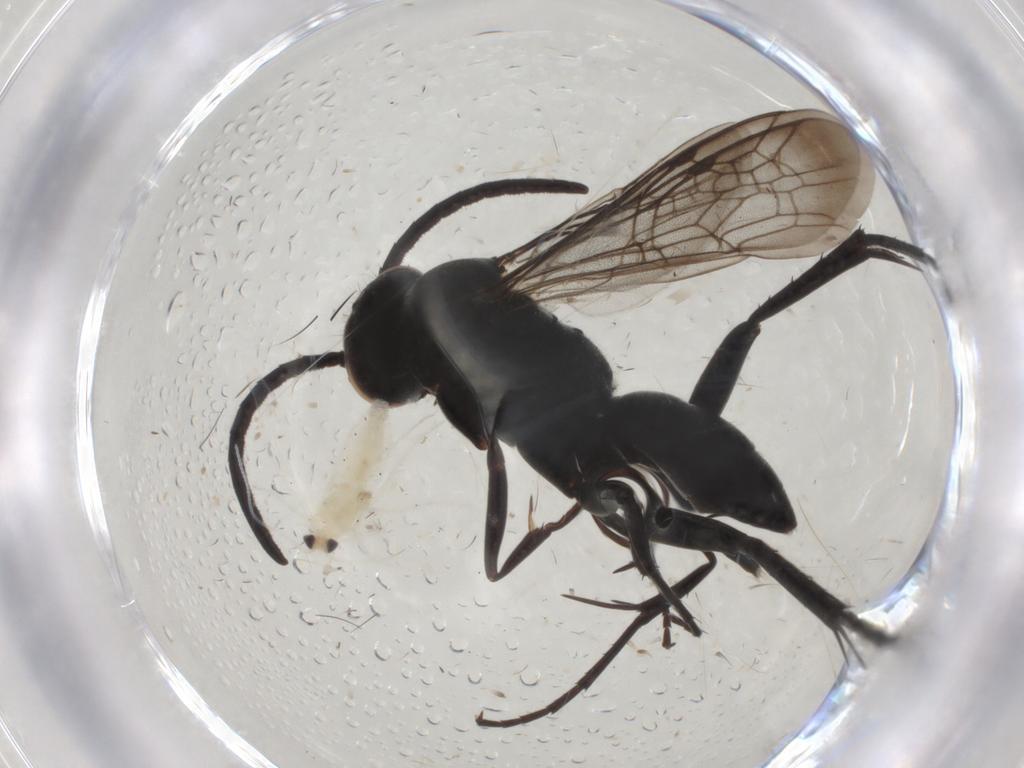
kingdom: Animalia
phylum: Arthropoda
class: Insecta
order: Hymenoptera
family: Pompilidae
